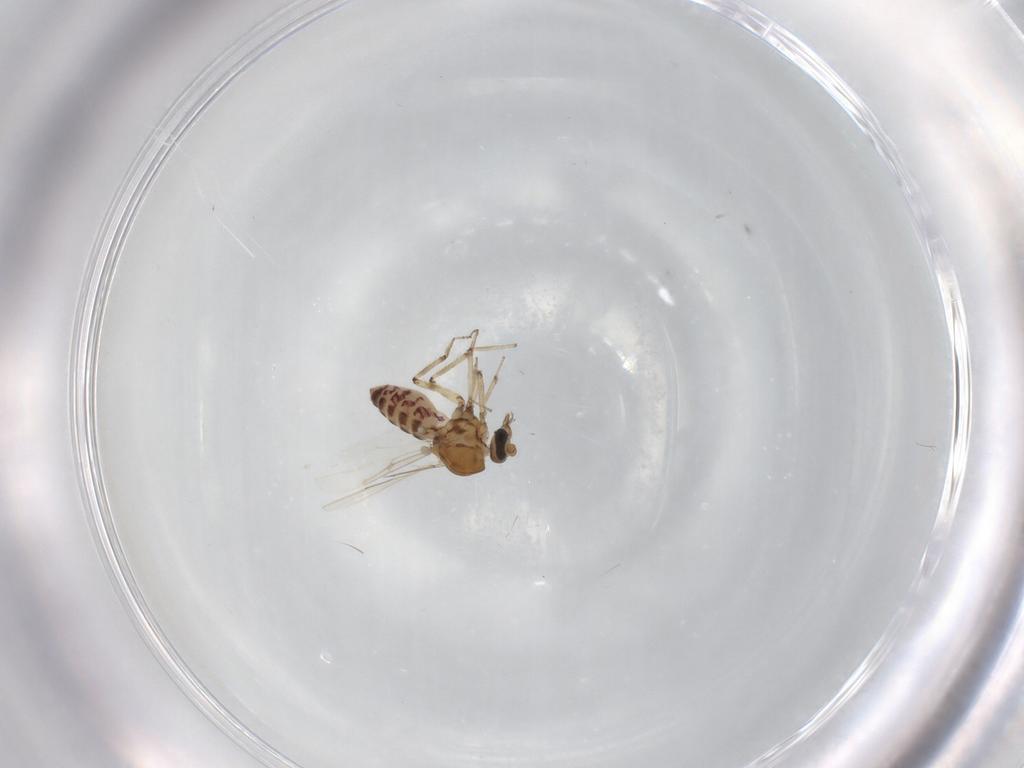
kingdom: Animalia
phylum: Arthropoda
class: Insecta
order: Diptera
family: Ceratopogonidae
